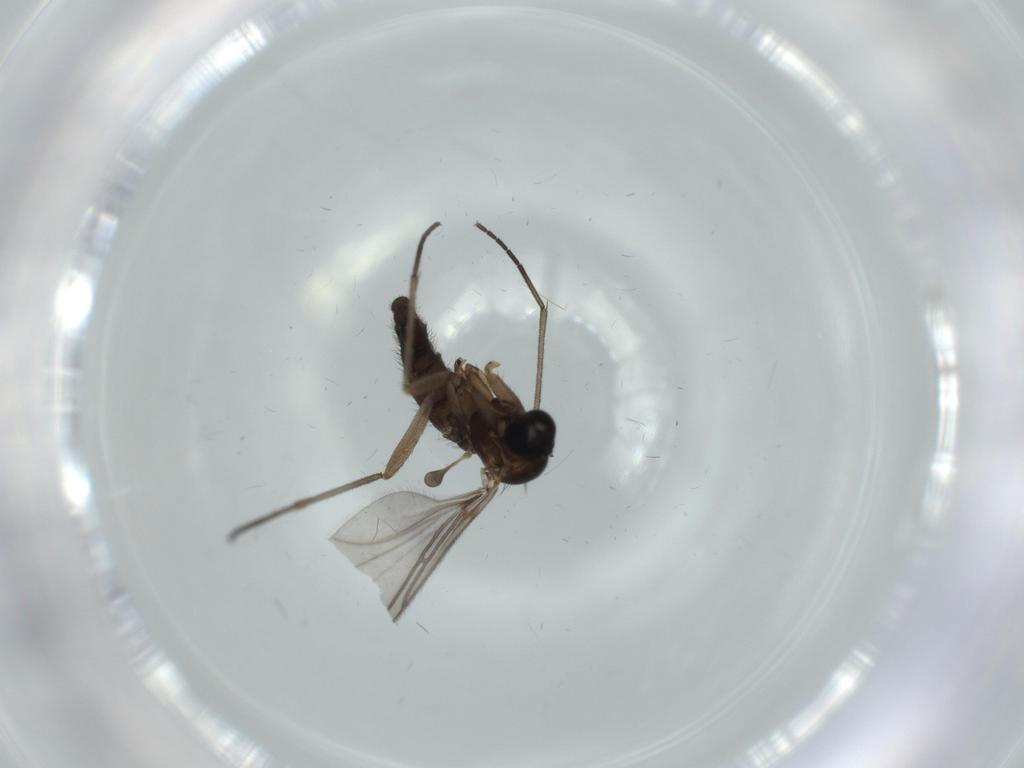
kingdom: Animalia
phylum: Arthropoda
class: Insecta
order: Diptera
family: Sciaridae
